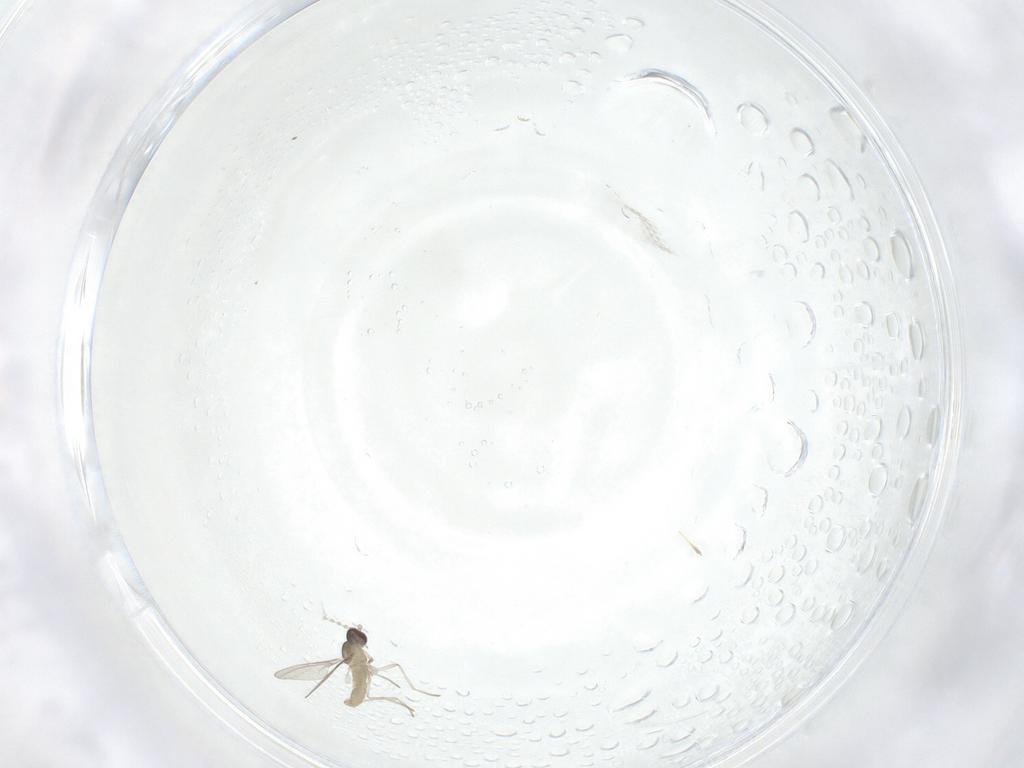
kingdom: Animalia
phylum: Arthropoda
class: Insecta
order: Diptera
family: Cecidomyiidae
